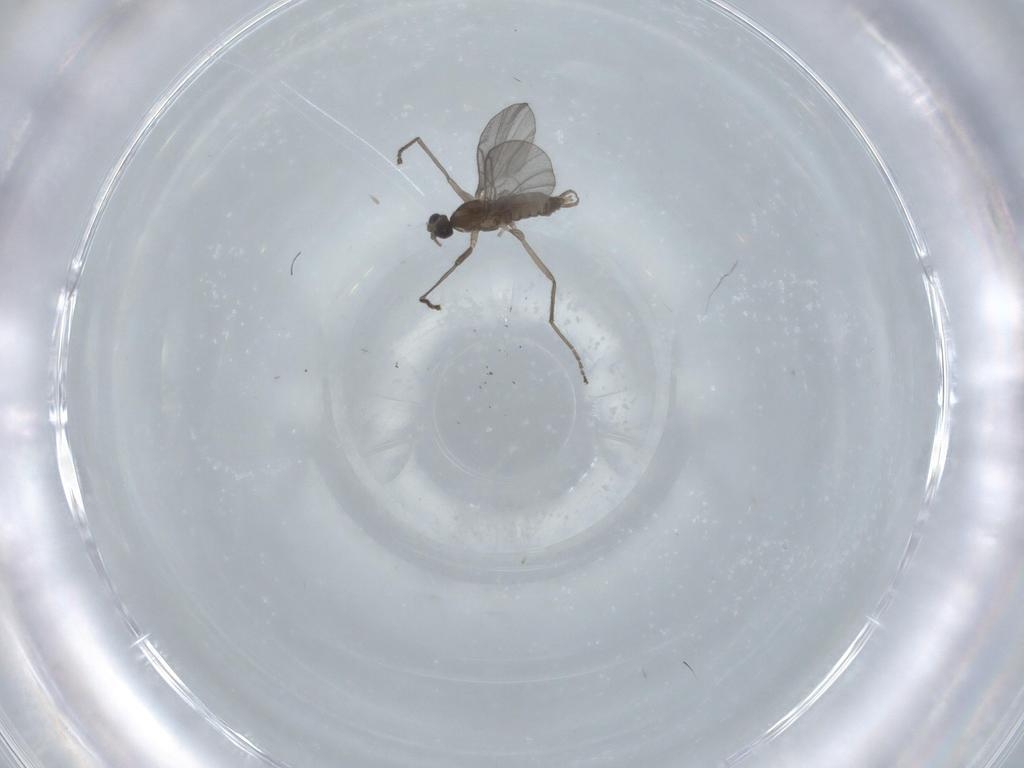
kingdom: Animalia
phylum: Arthropoda
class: Insecta
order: Diptera
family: Cecidomyiidae
